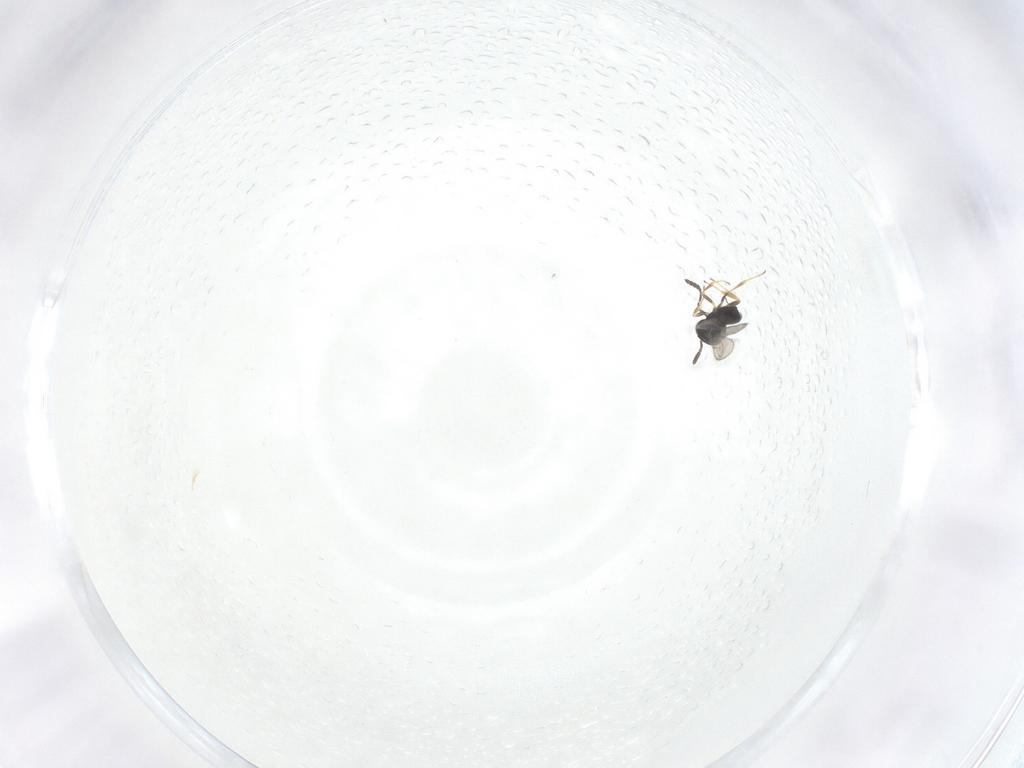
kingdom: Animalia
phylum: Arthropoda
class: Insecta
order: Hymenoptera
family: Scelionidae
